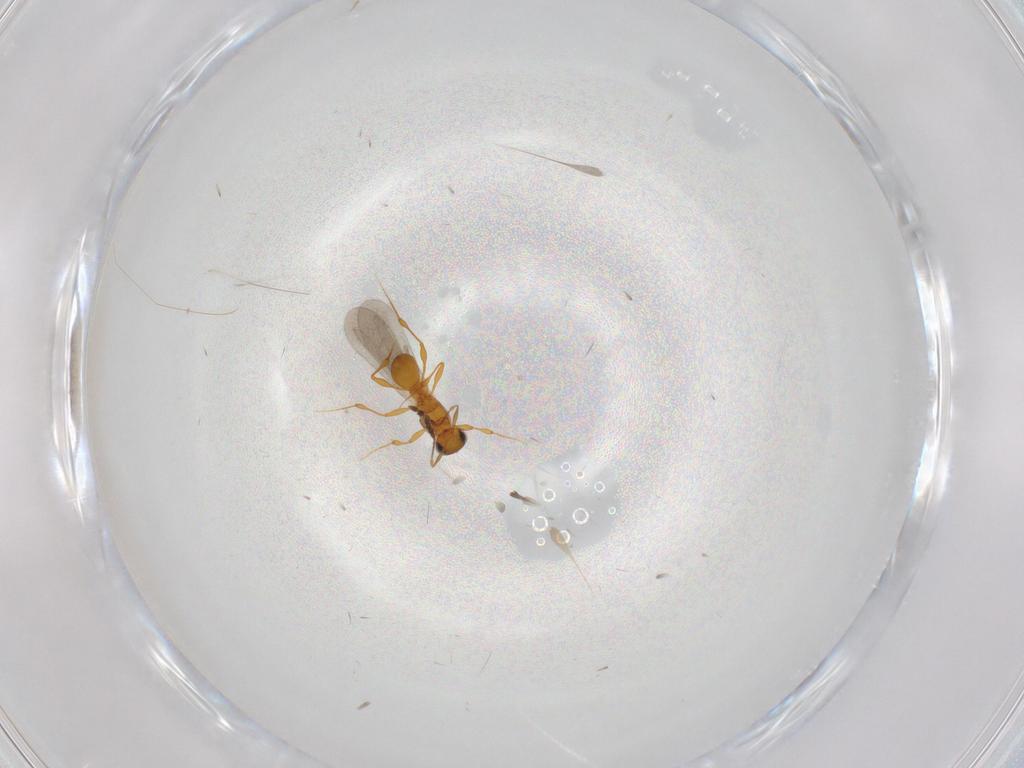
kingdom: Animalia
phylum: Arthropoda
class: Insecta
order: Hymenoptera
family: Platygastridae
